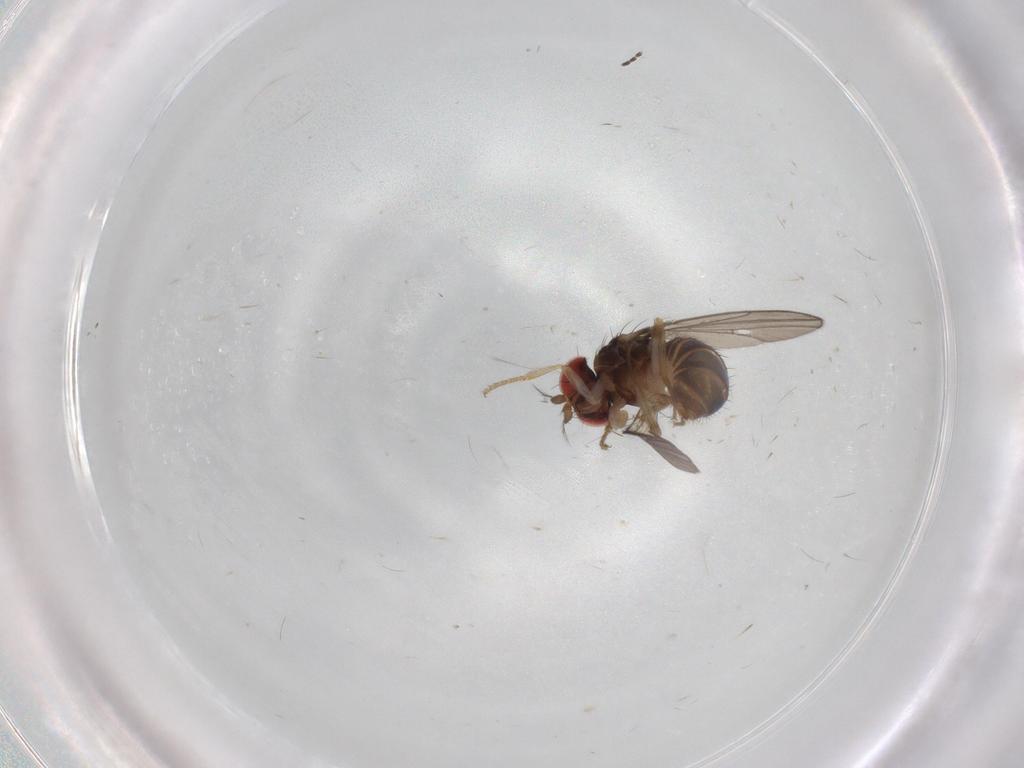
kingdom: Animalia
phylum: Arthropoda
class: Insecta
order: Diptera
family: Drosophilidae
